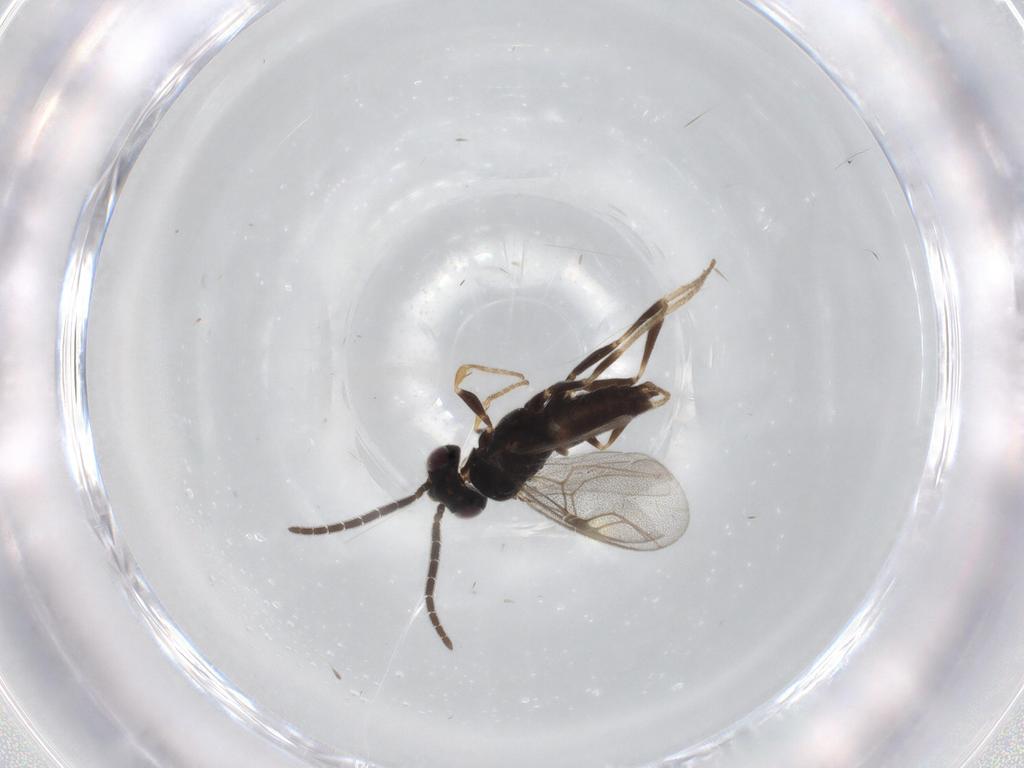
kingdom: Animalia
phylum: Arthropoda
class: Insecta
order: Hymenoptera
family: Dryinidae
